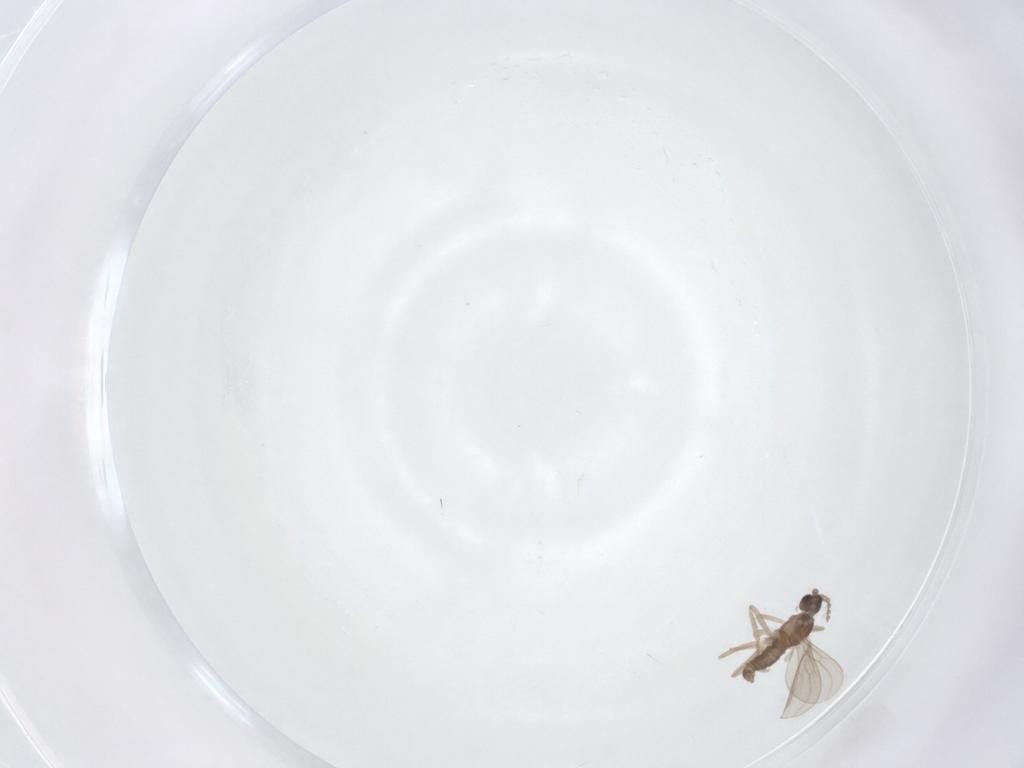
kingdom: Animalia
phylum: Arthropoda
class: Insecta
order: Diptera
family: Cecidomyiidae
